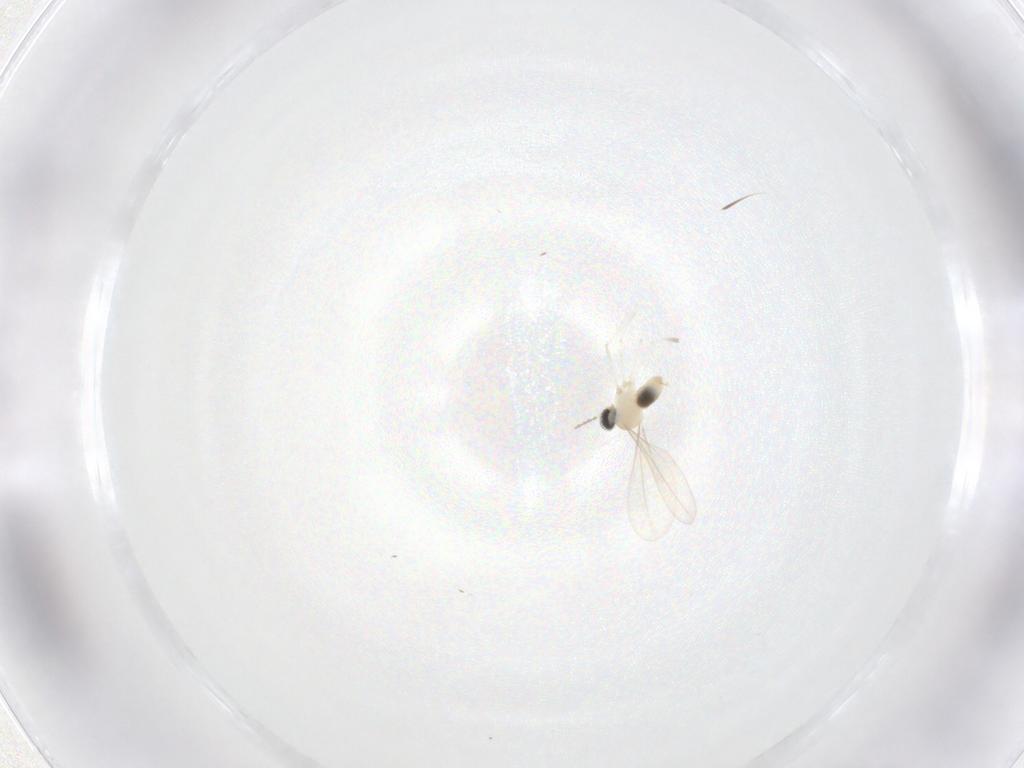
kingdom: Animalia
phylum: Arthropoda
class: Insecta
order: Diptera
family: Cecidomyiidae
